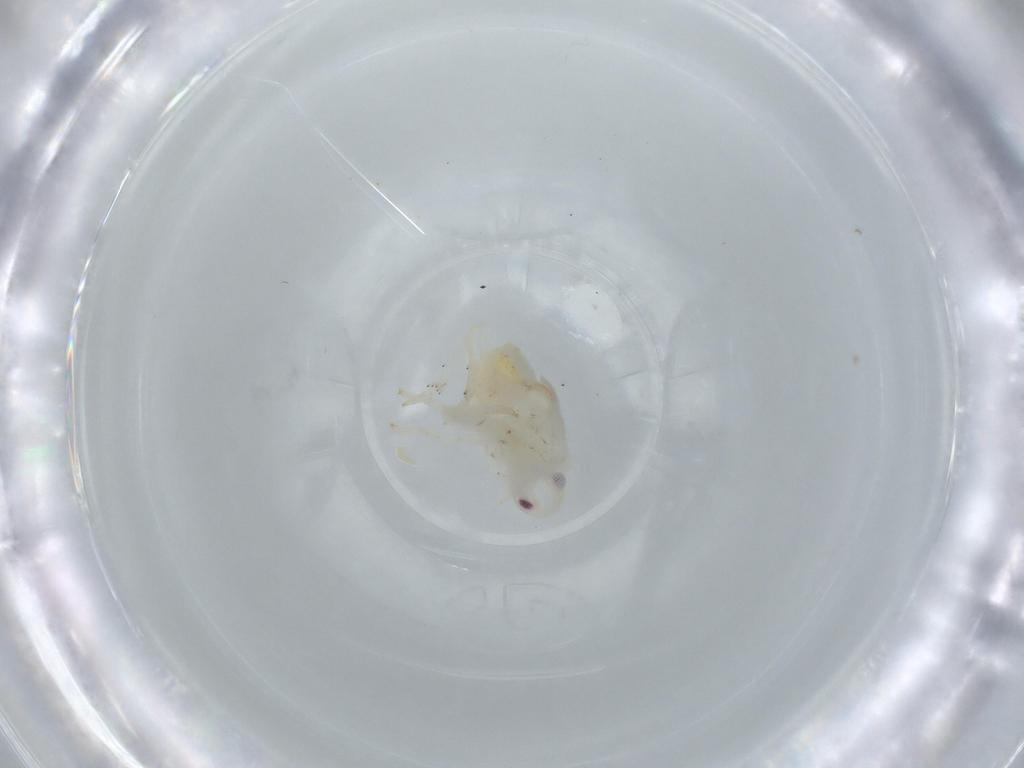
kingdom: Animalia
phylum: Arthropoda
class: Insecta
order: Hemiptera
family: Flatidae
